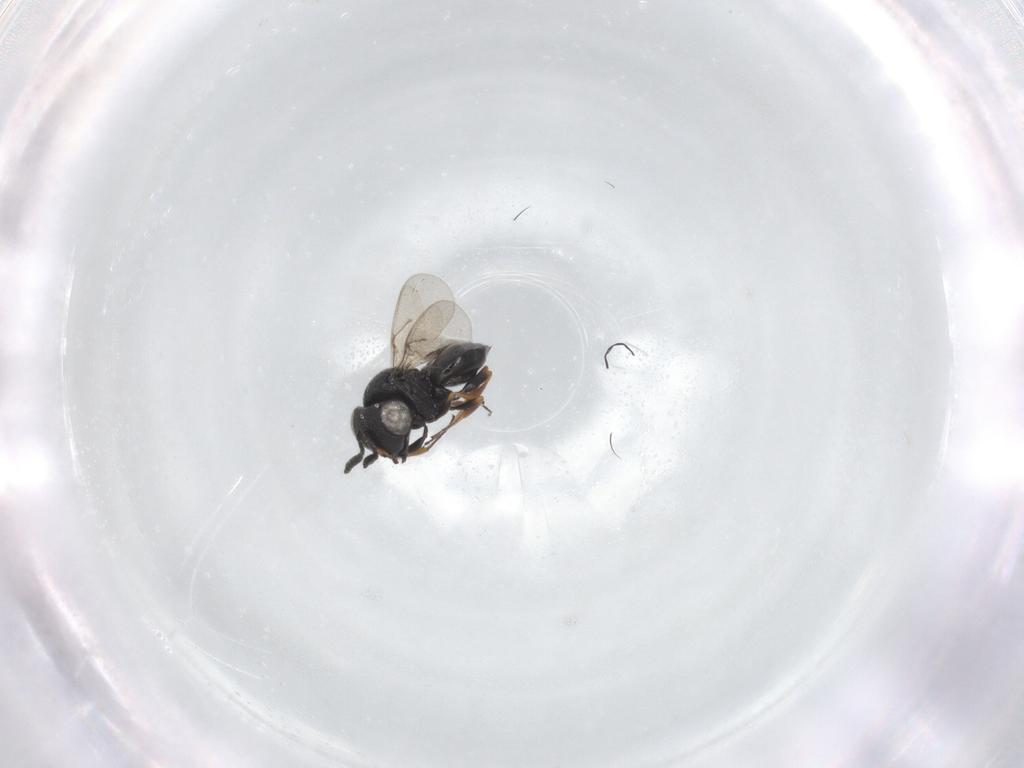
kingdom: Animalia
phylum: Arthropoda
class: Insecta
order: Hymenoptera
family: Scelionidae
